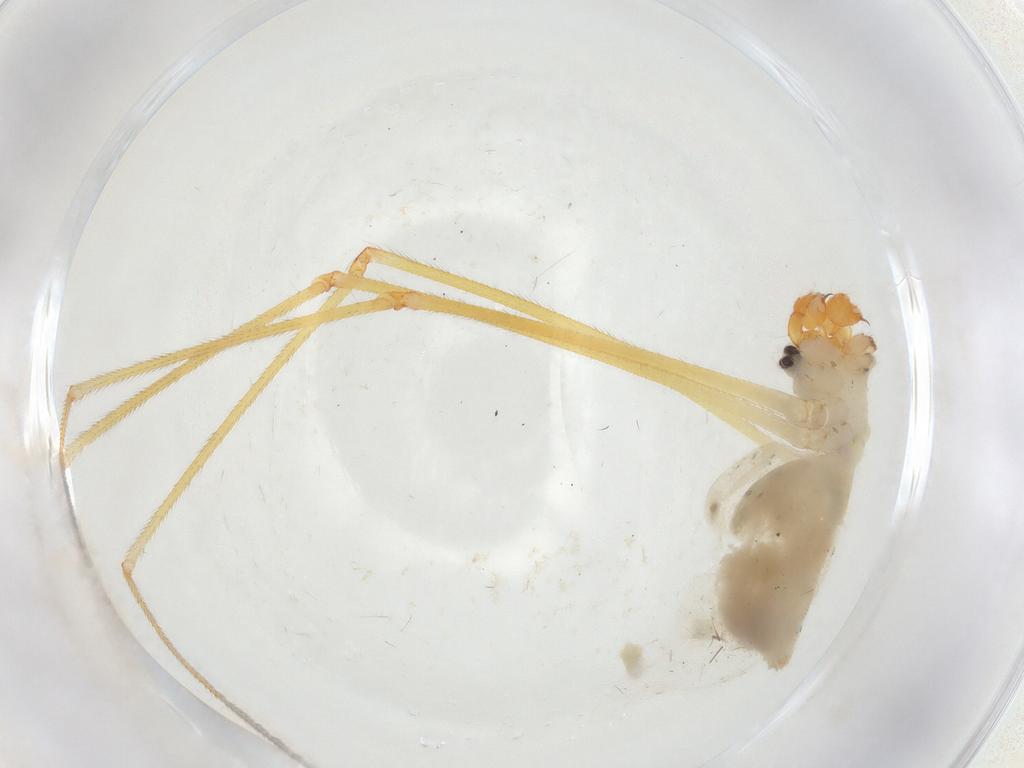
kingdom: Animalia
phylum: Arthropoda
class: Arachnida
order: Araneae
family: Pholcidae
